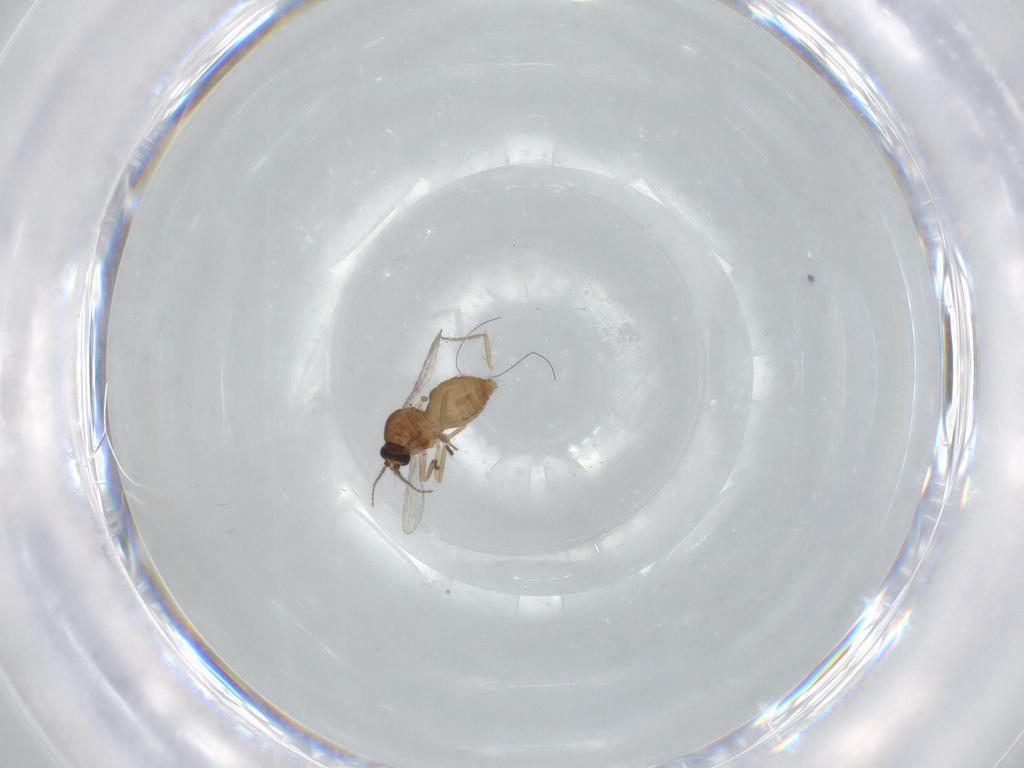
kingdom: Animalia
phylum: Arthropoda
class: Insecta
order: Diptera
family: Ceratopogonidae
